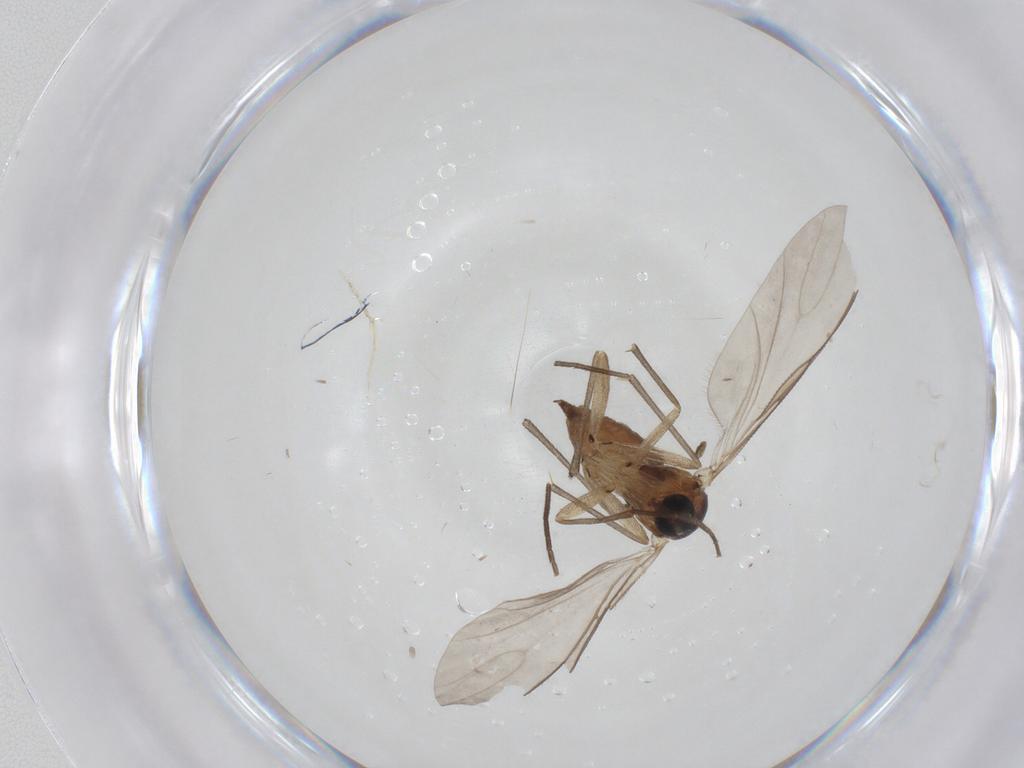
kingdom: Animalia
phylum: Arthropoda
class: Insecta
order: Diptera
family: Sciaridae
